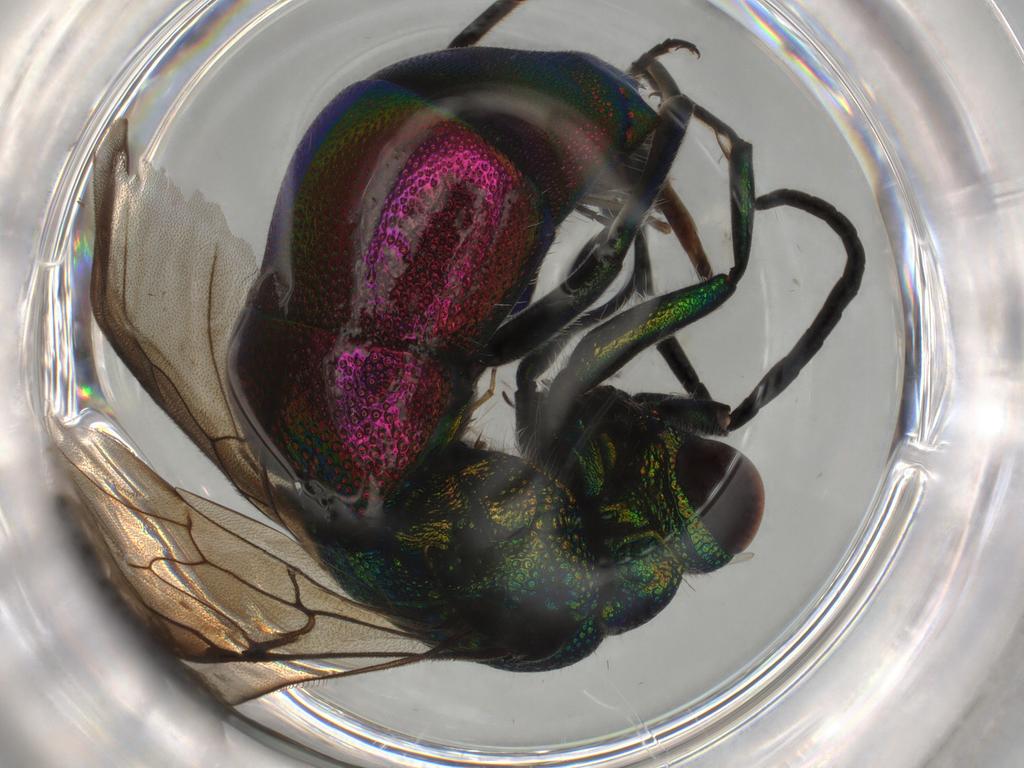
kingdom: Animalia
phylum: Arthropoda
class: Insecta
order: Hymenoptera
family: Chrysididae
